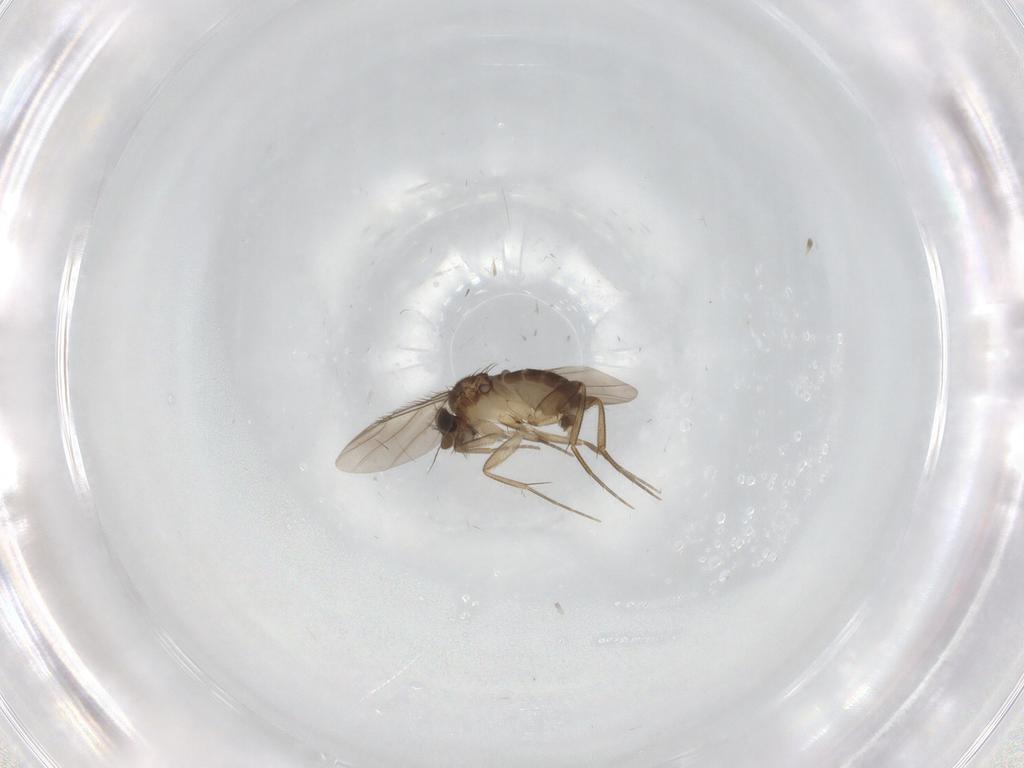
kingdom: Animalia
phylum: Arthropoda
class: Insecta
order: Diptera
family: Phoridae
